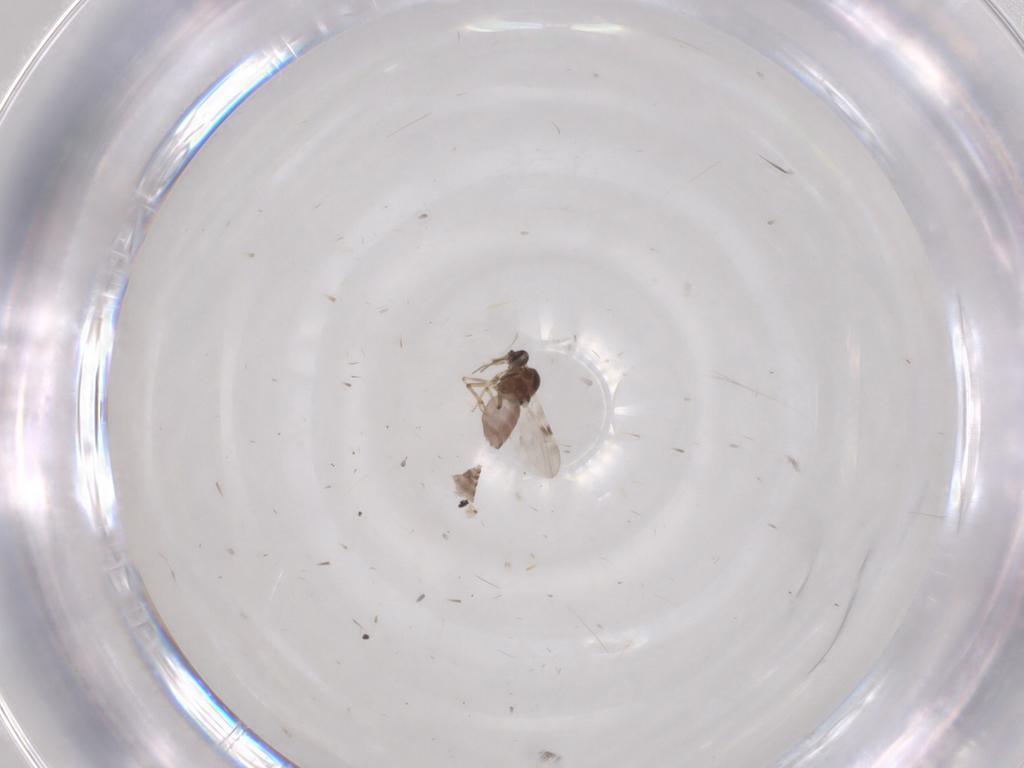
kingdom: Animalia
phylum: Arthropoda
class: Insecta
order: Diptera
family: Cecidomyiidae
